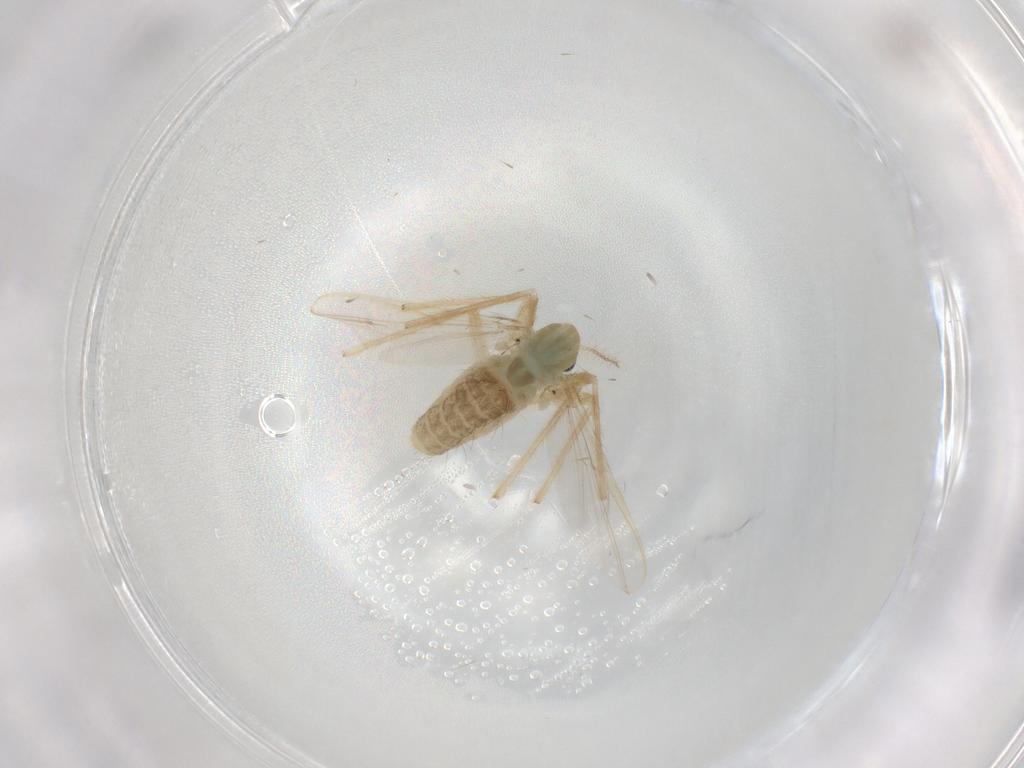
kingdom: Animalia
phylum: Arthropoda
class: Insecta
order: Diptera
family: Chironomidae
